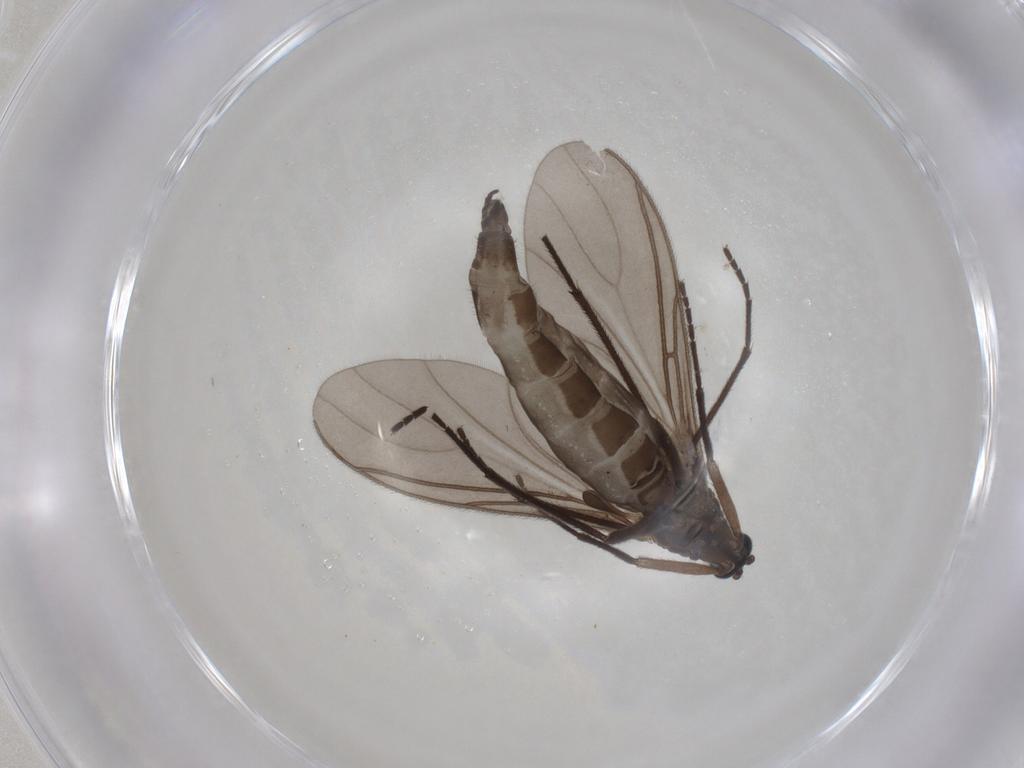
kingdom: Animalia
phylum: Arthropoda
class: Insecta
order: Diptera
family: Sciaridae
